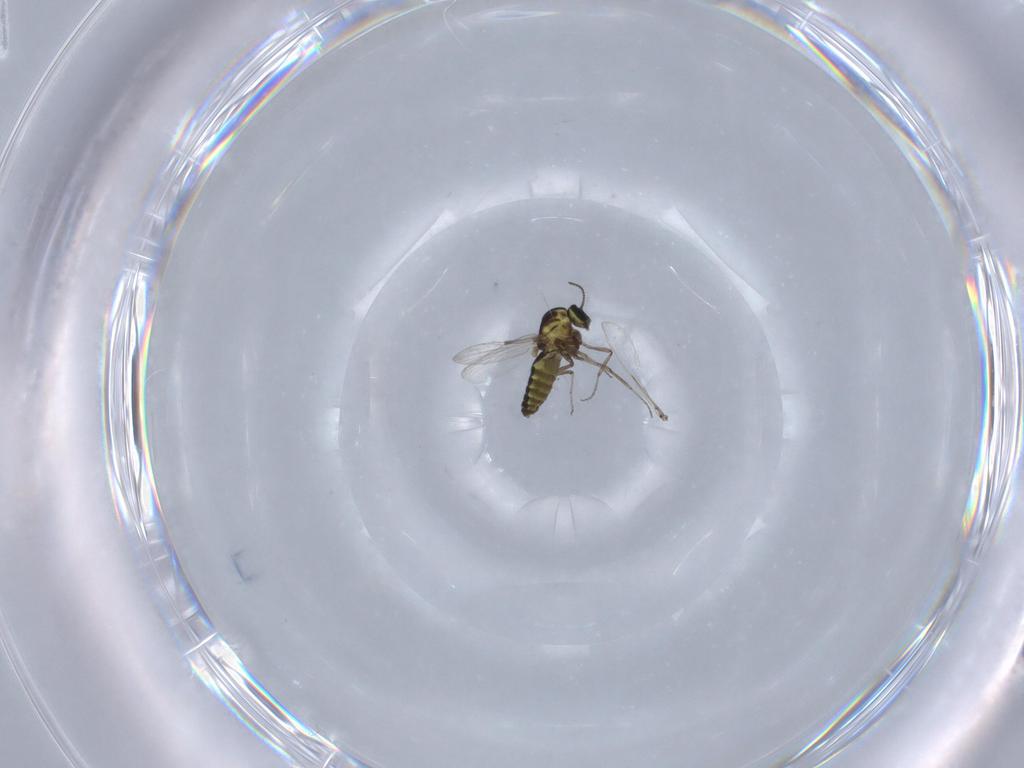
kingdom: Animalia
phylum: Arthropoda
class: Insecta
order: Diptera
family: Ceratopogonidae
